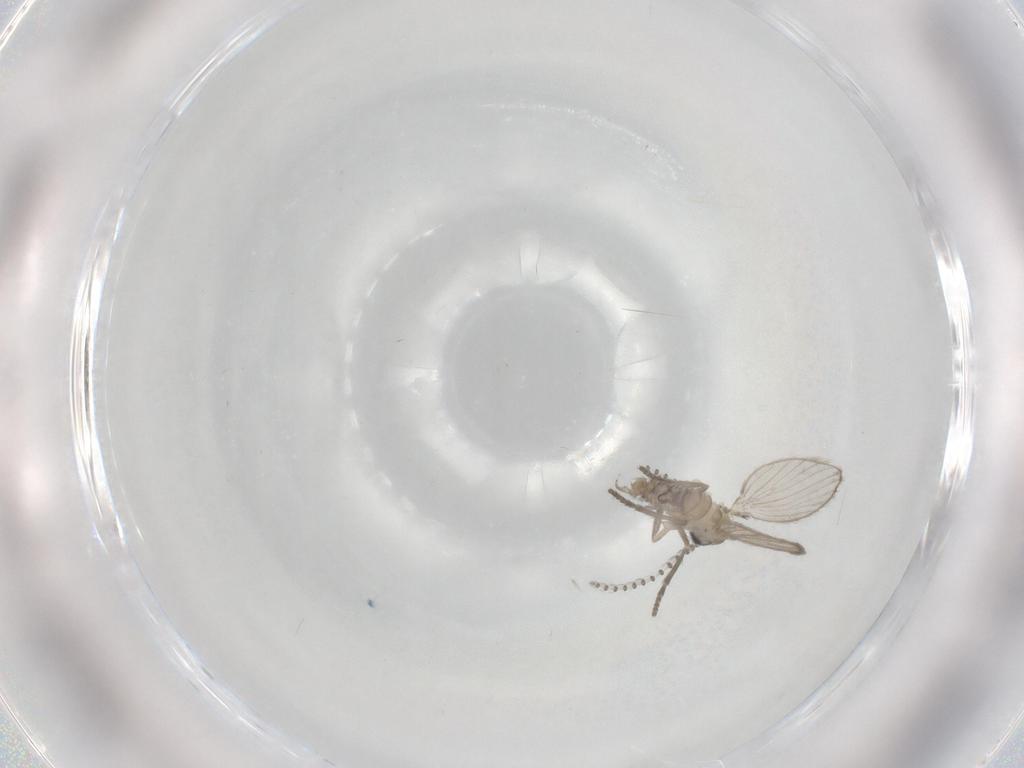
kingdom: Animalia
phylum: Arthropoda
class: Insecta
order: Diptera
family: Psychodidae
